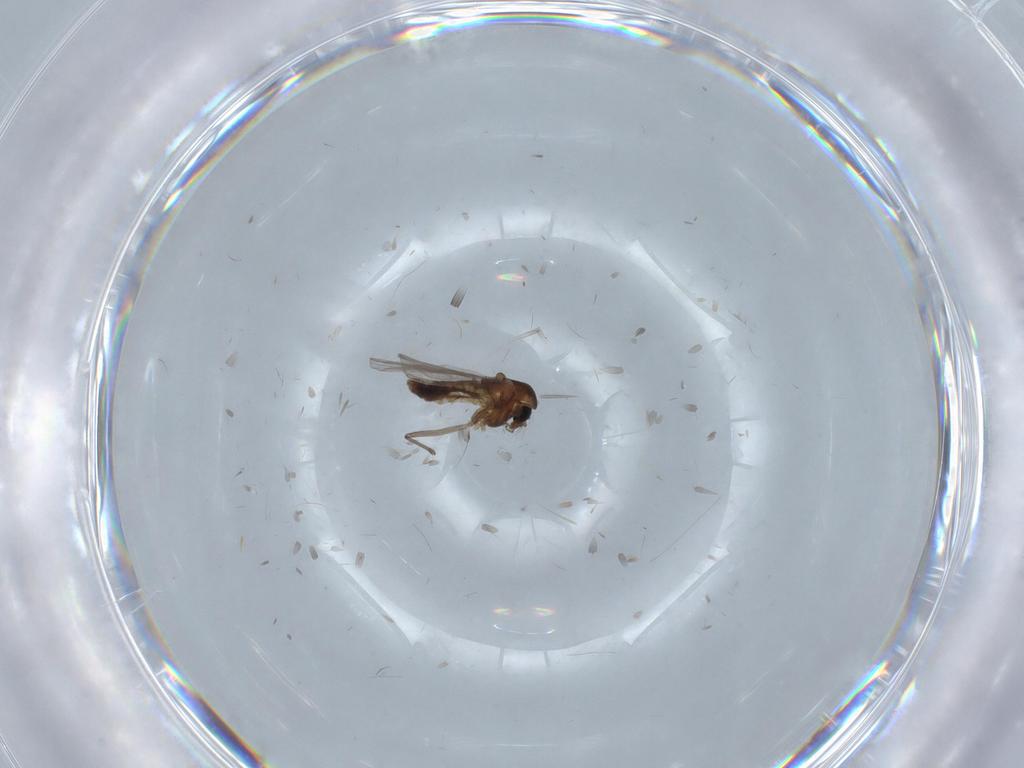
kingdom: Animalia
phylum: Arthropoda
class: Insecta
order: Diptera
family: Chironomidae
